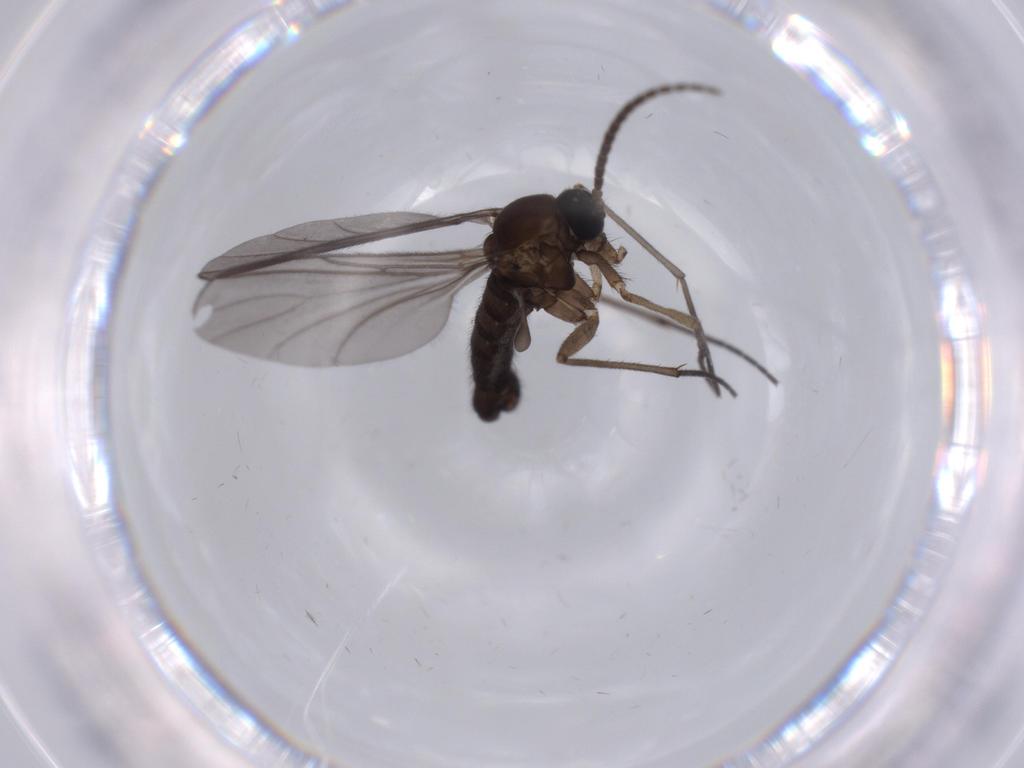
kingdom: Animalia
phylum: Arthropoda
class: Insecta
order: Diptera
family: Sciaridae
